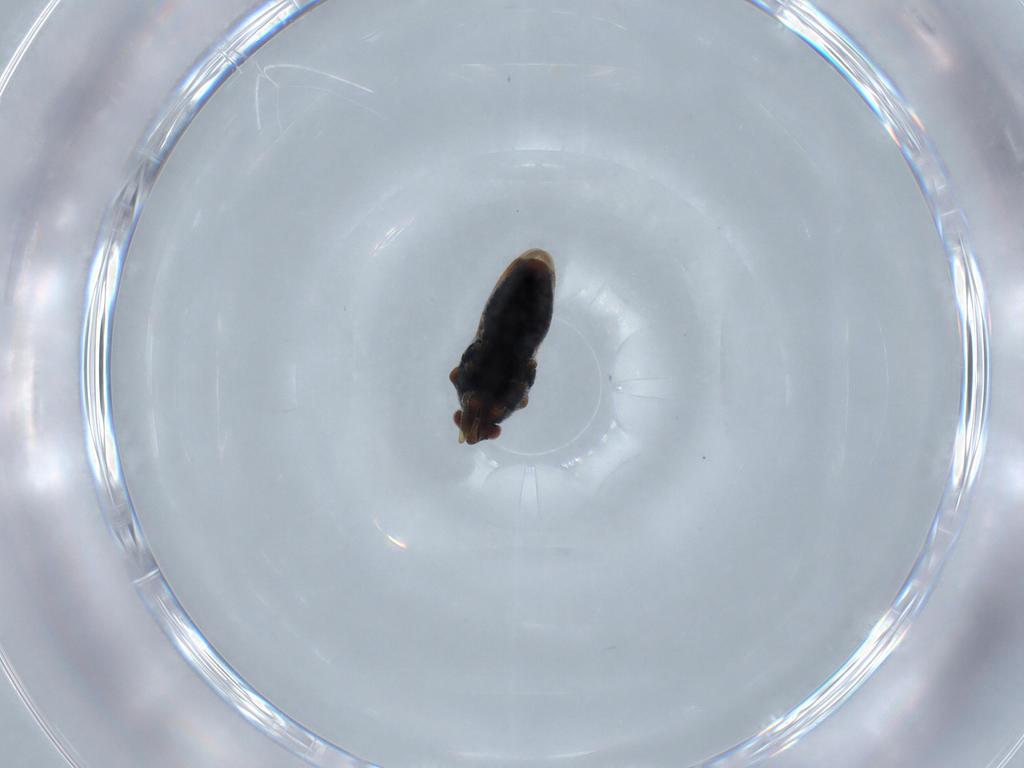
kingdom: Animalia
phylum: Arthropoda
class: Insecta
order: Hemiptera
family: Veliidae
